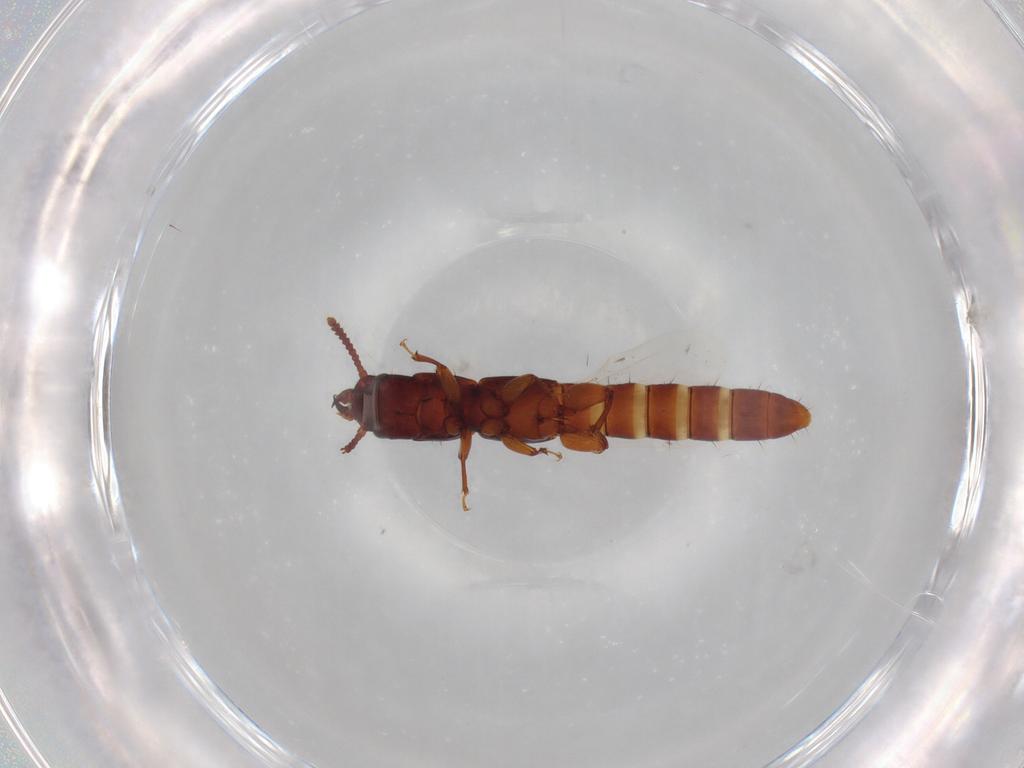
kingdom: Animalia
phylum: Arthropoda
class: Insecta
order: Coleoptera
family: Staphylinidae
